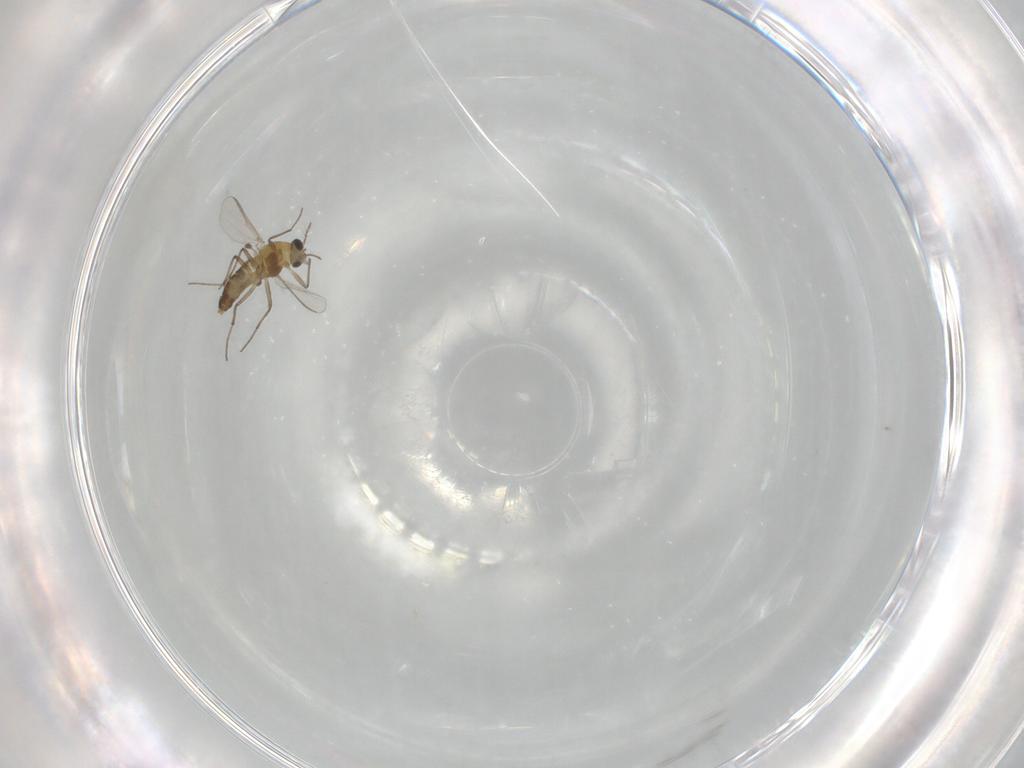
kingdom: Animalia
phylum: Arthropoda
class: Insecta
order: Diptera
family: Chironomidae
